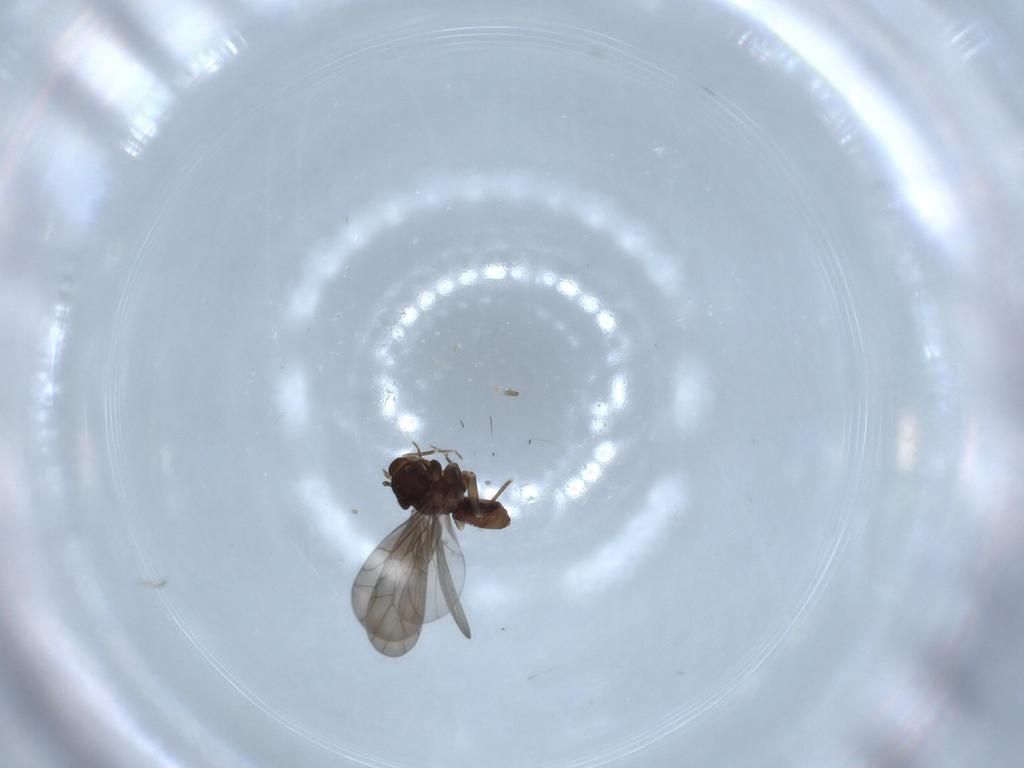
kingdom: Animalia
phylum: Arthropoda
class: Insecta
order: Psocodea
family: Lepidopsocidae
